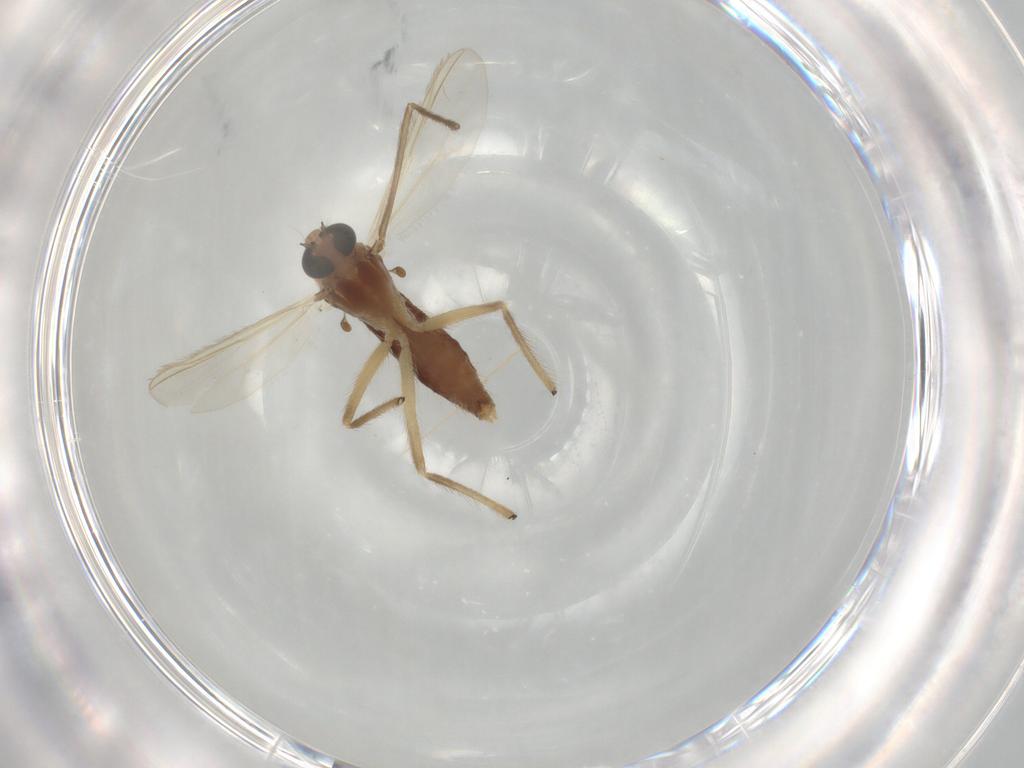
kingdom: Animalia
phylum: Arthropoda
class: Insecta
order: Diptera
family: Chironomidae
